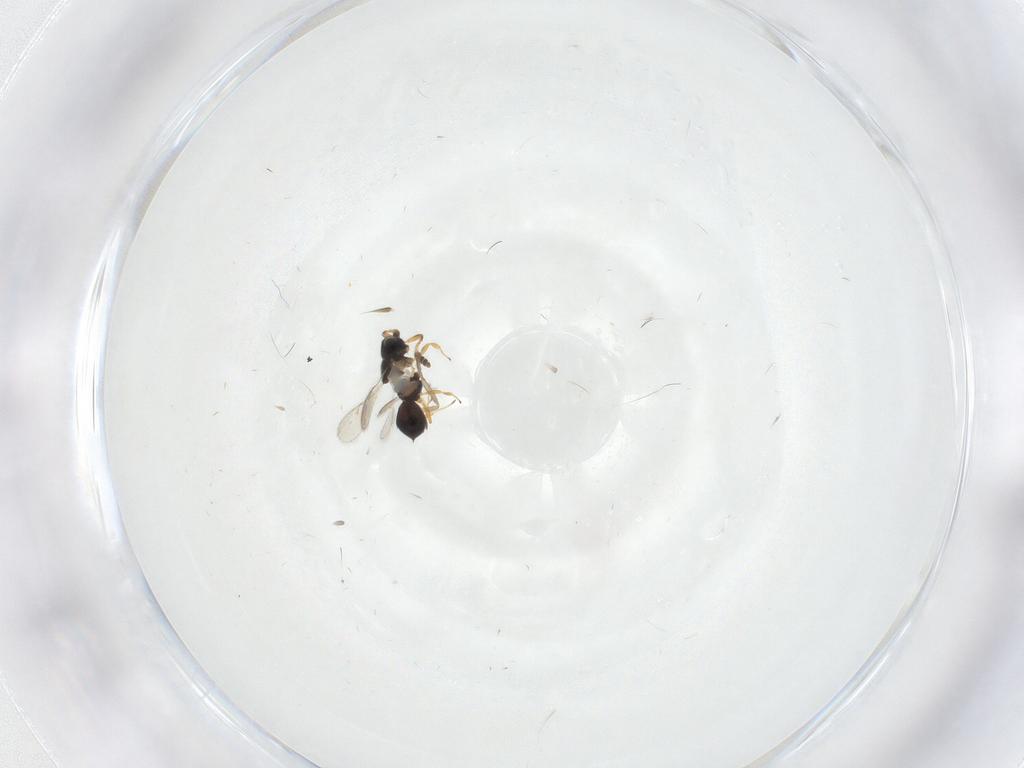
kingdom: Animalia
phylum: Arthropoda
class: Insecta
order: Hymenoptera
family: Scelionidae
